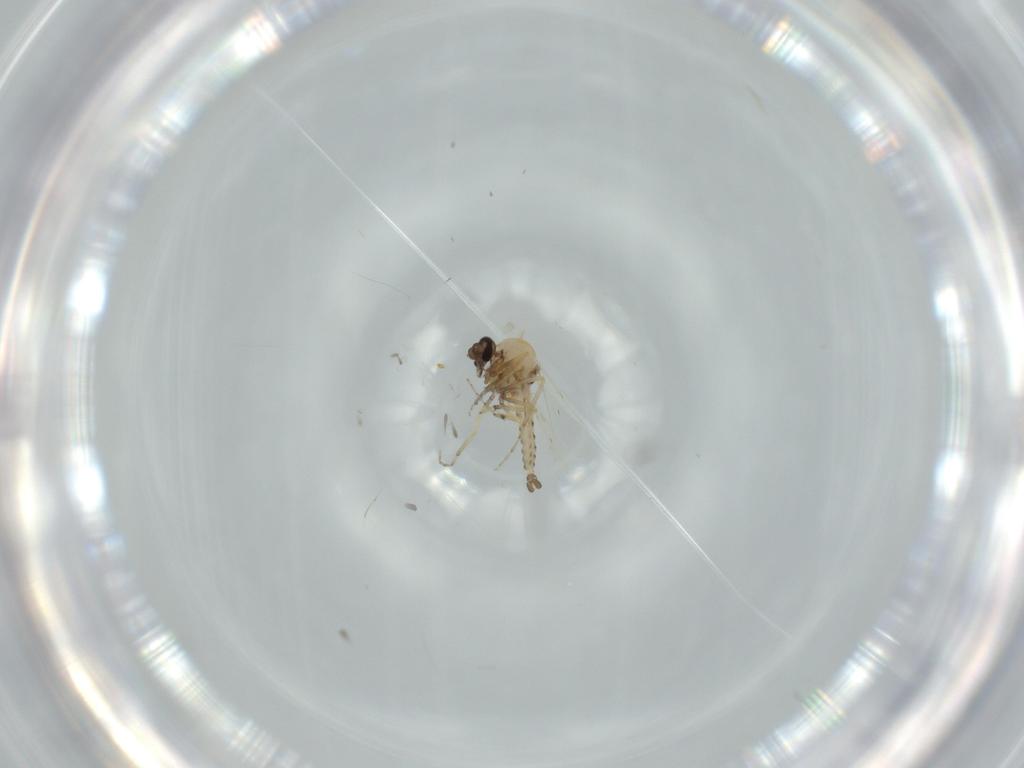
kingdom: Animalia
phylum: Arthropoda
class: Insecta
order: Diptera
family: Ceratopogonidae
